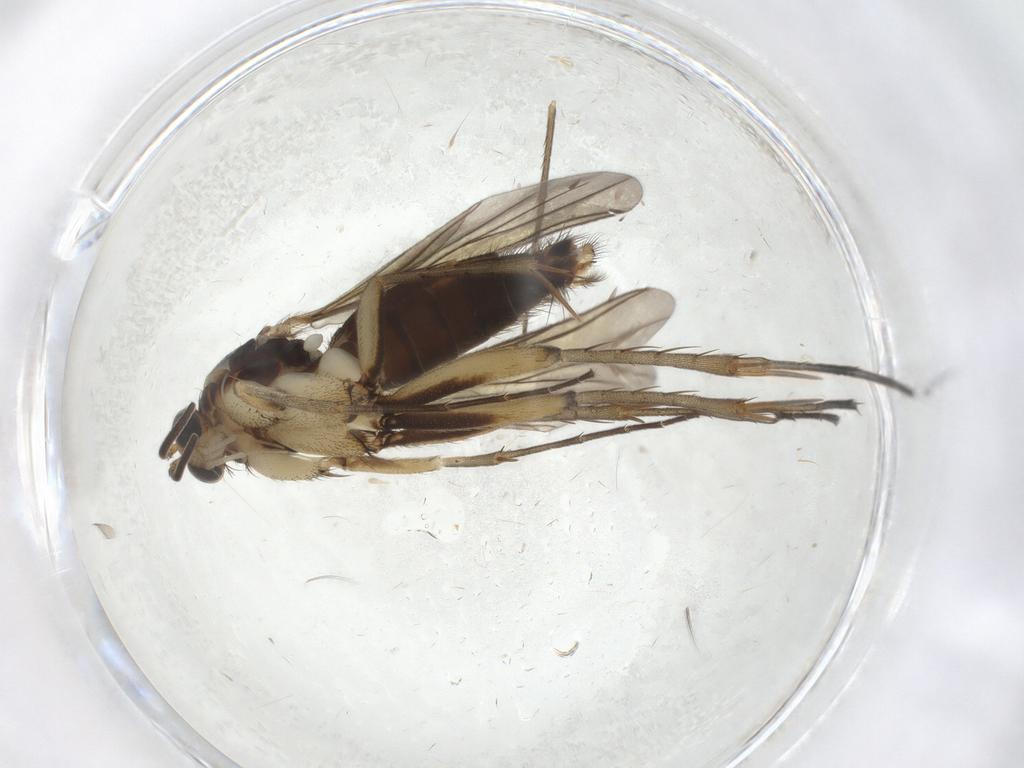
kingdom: Animalia
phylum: Arthropoda
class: Insecta
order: Diptera
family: Mycetophilidae
